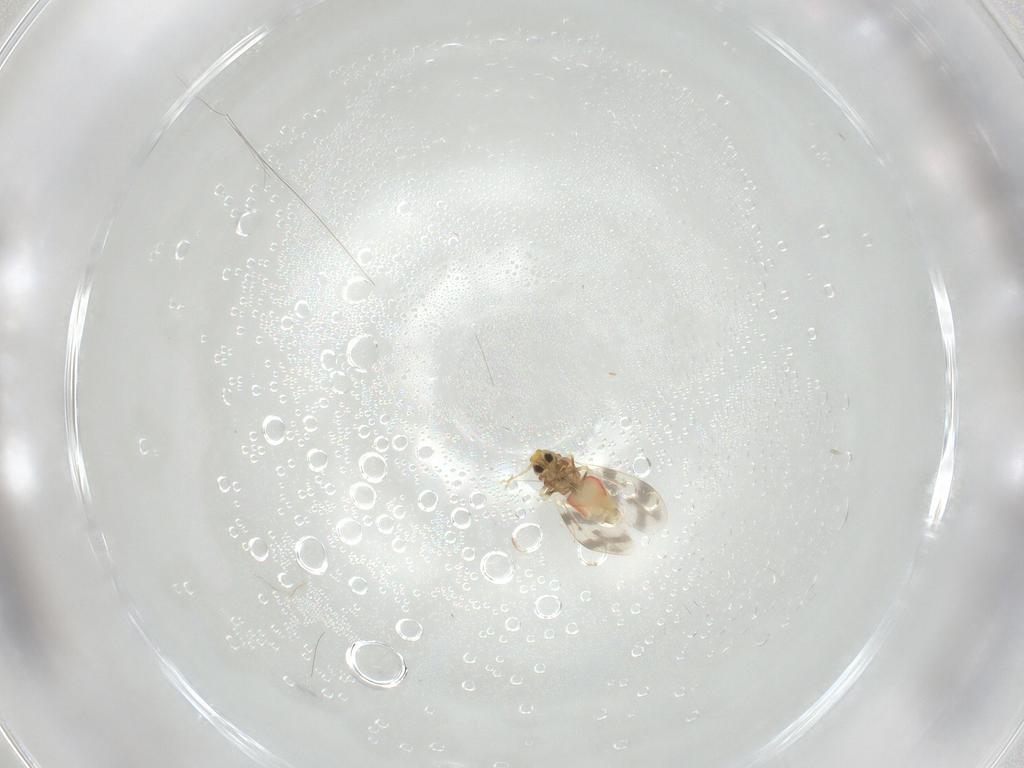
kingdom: Animalia
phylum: Arthropoda
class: Insecta
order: Hemiptera
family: Aleyrodidae
